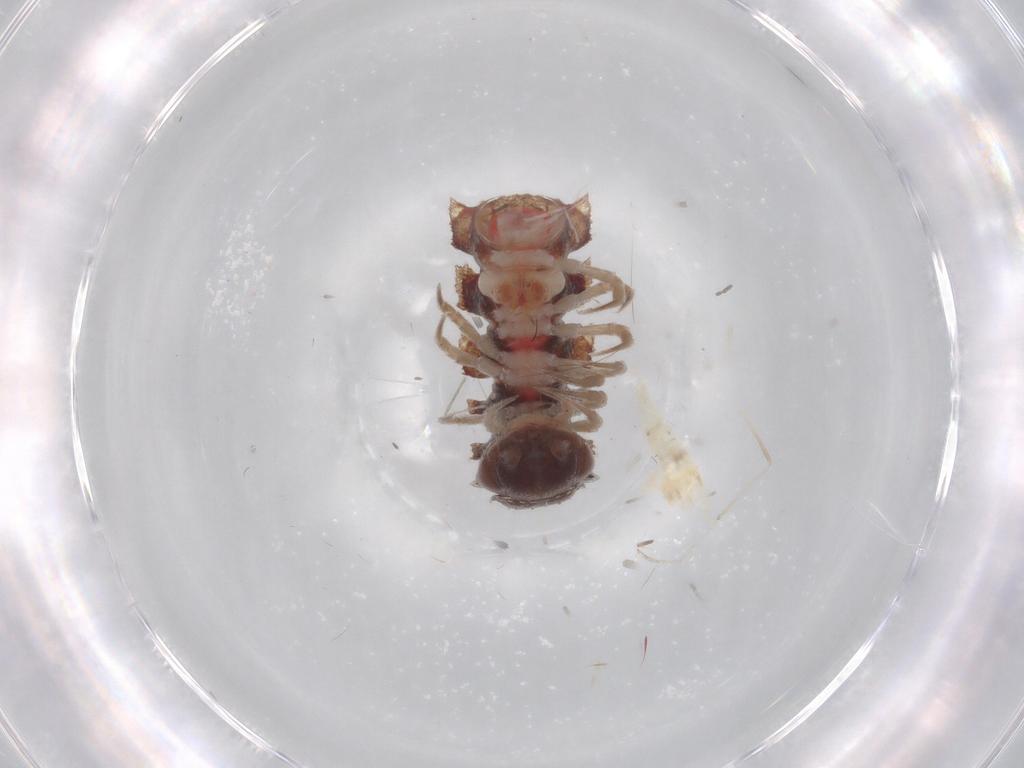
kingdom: Animalia
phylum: Arthropoda
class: Insecta
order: Coleoptera
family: Chrysomelidae
